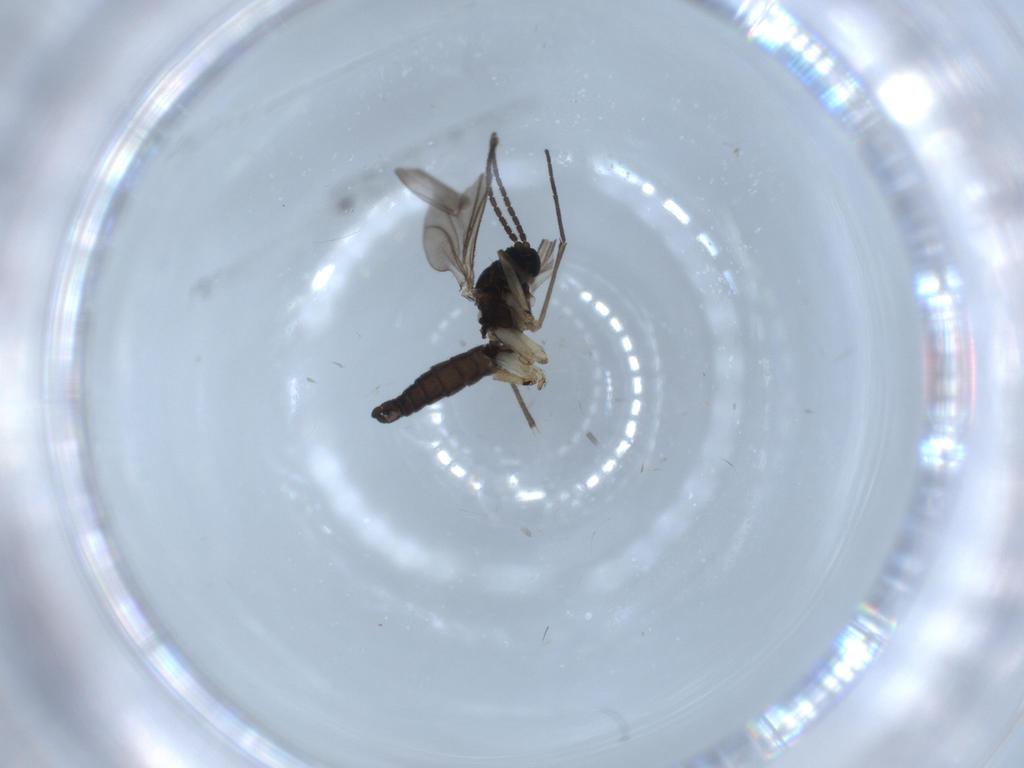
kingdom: Animalia
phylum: Arthropoda
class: Insecta
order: Diptera
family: Sciaridae
